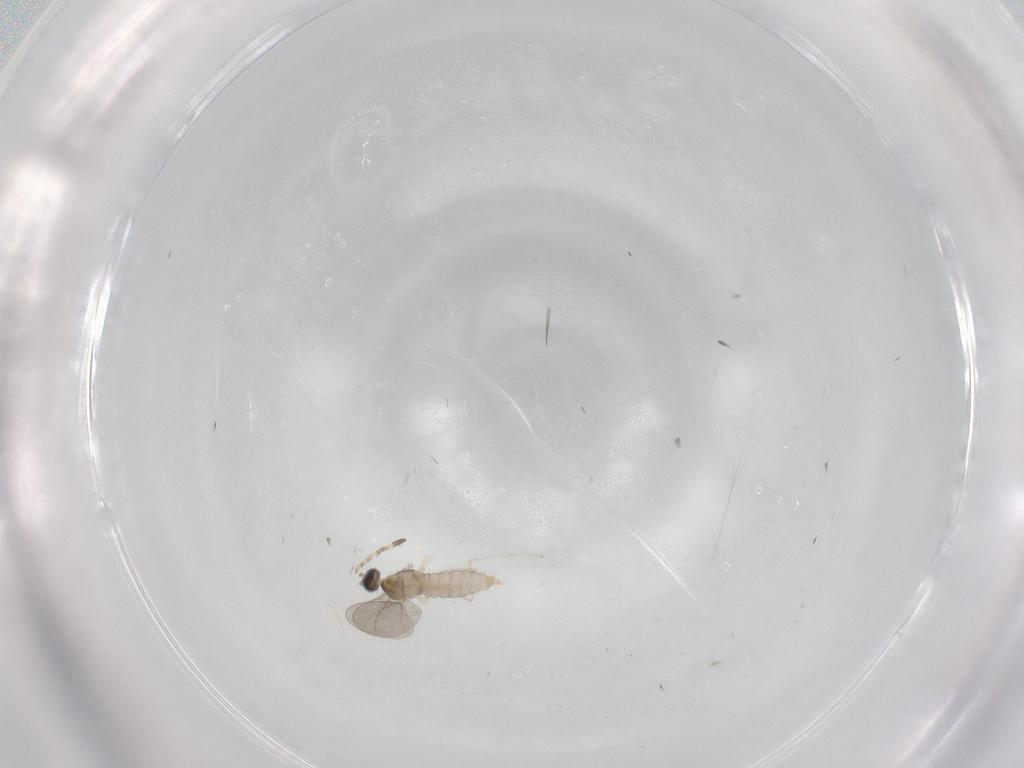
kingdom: Animalia
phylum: Arthropoda
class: Insecta
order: Diptera
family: Cecidomyiidae
